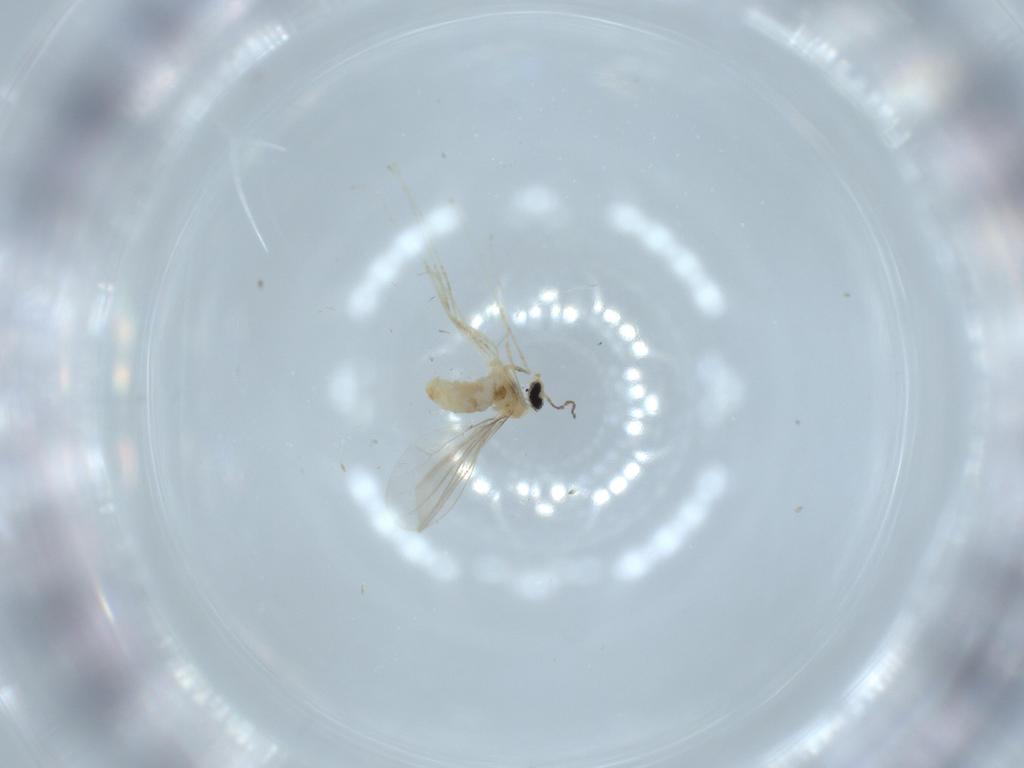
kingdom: Animalia
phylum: Arthropoda
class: Insecta
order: Diptera
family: Cecidomyiidae
